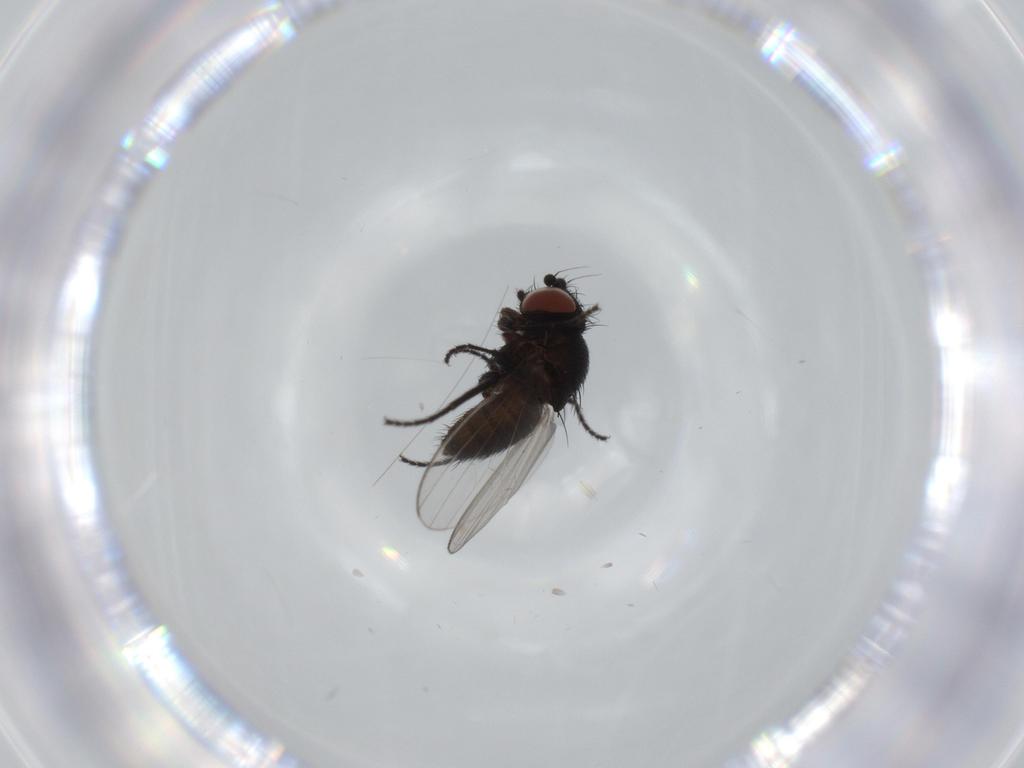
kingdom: Animalia
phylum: Arthropoda
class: Insecta
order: Diptera
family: Milichiidae
